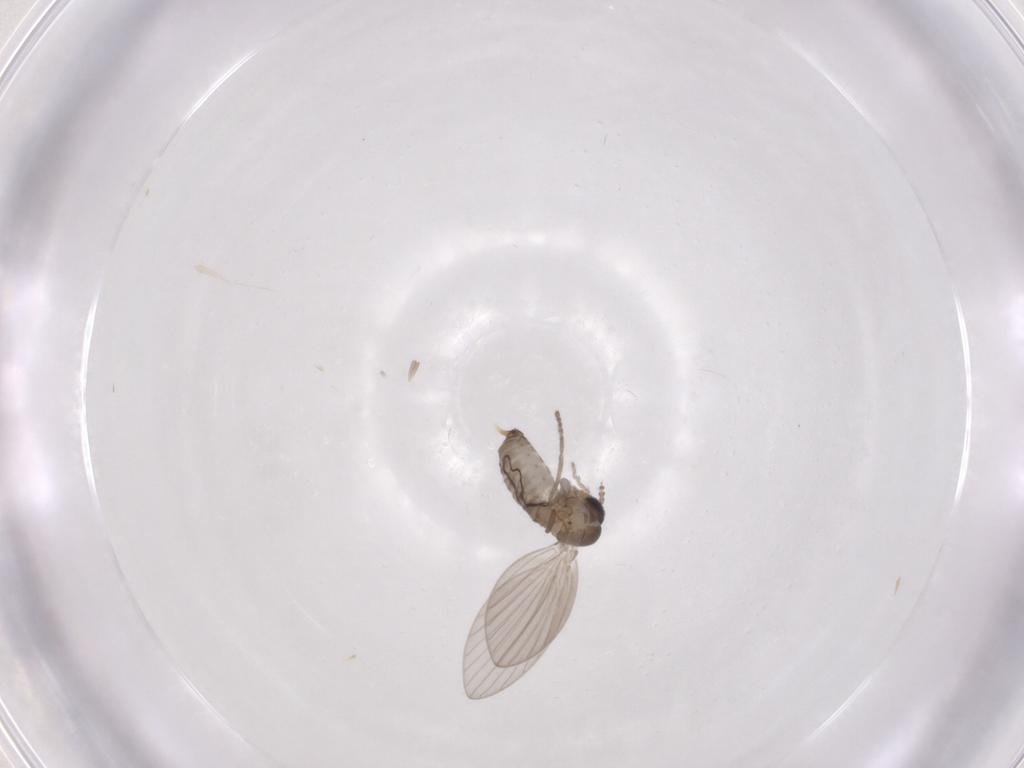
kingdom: Animalia
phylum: Arthropoda
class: Insecta
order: Diptera
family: Psychodidae
